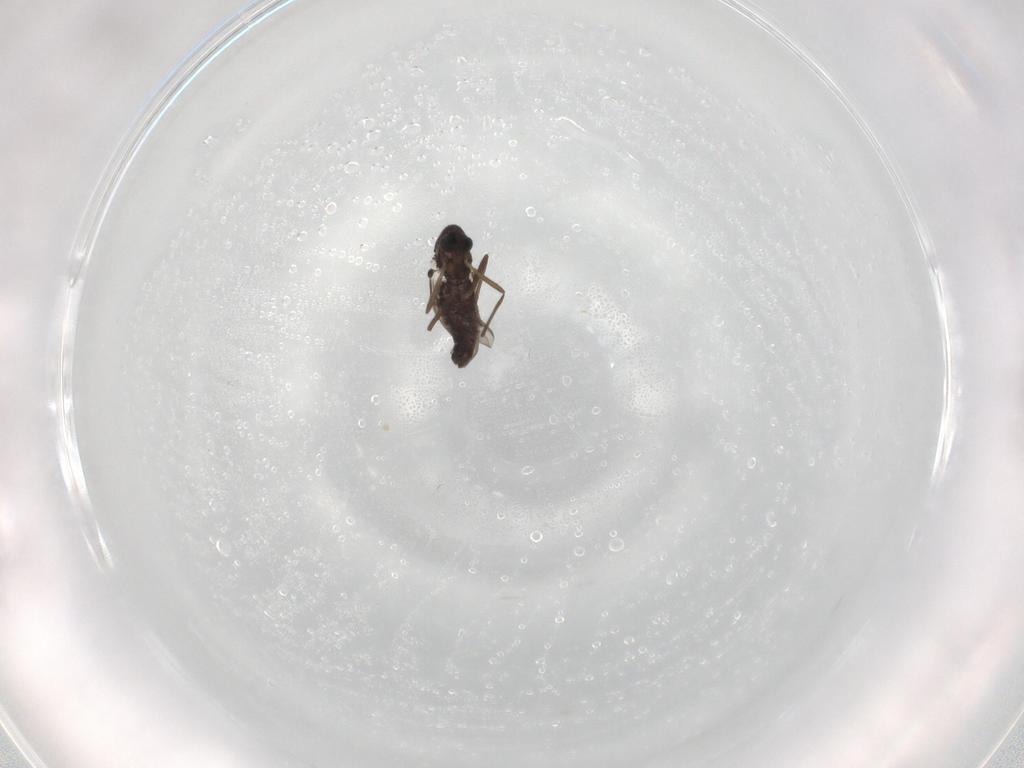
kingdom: Animalia
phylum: Arthropoda
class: Insecta
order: Diptera
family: Chironomidae
